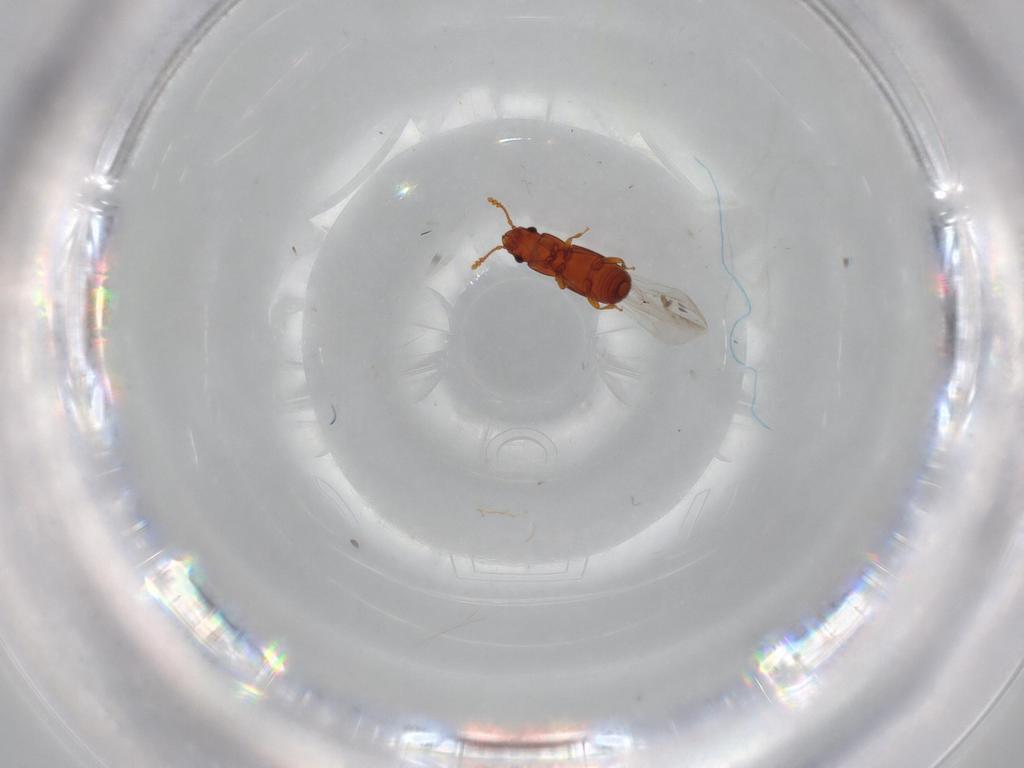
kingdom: Animalia
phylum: Arthropoda
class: Insecta
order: Coleoptera
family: Smicripidae
